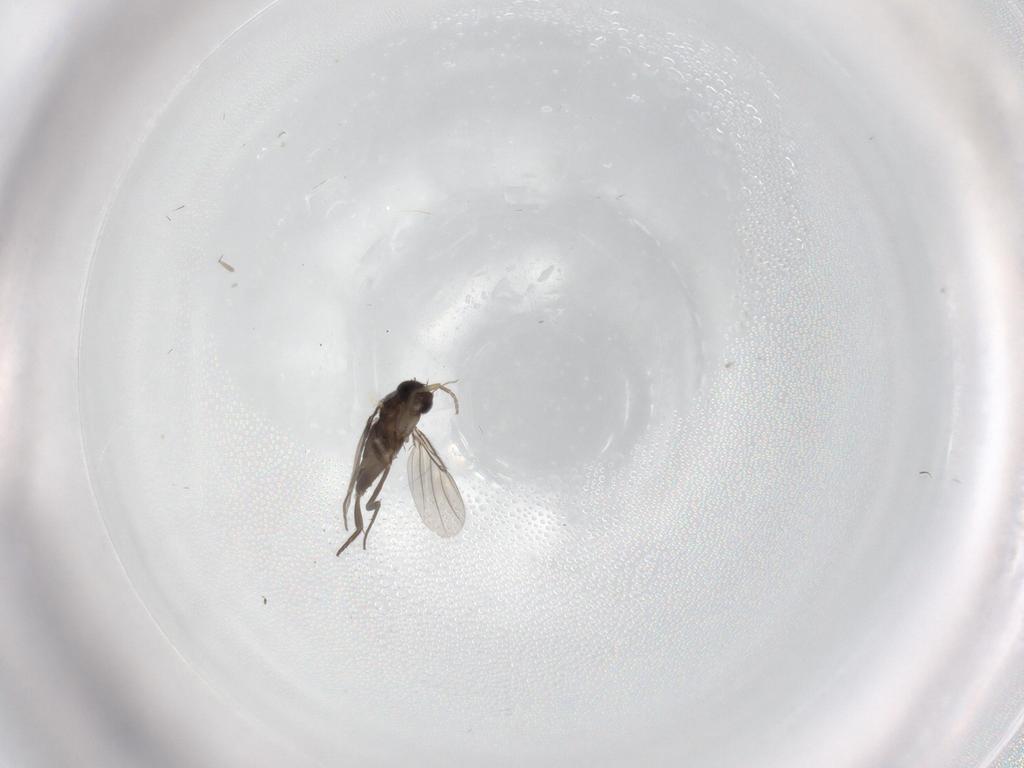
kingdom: Animalia
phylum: Arthropoda
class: Insecta
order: Diptera
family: Phoridae
